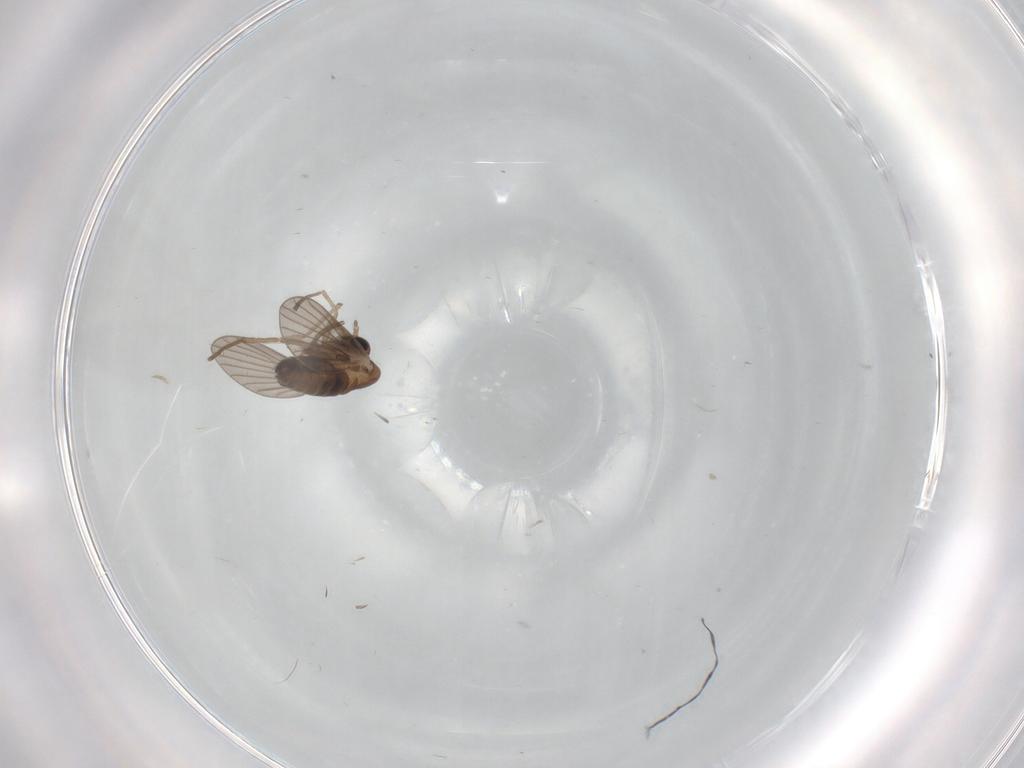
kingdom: Animalia
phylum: Arthropoda
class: Insecta
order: Diptera
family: Psychodidae
